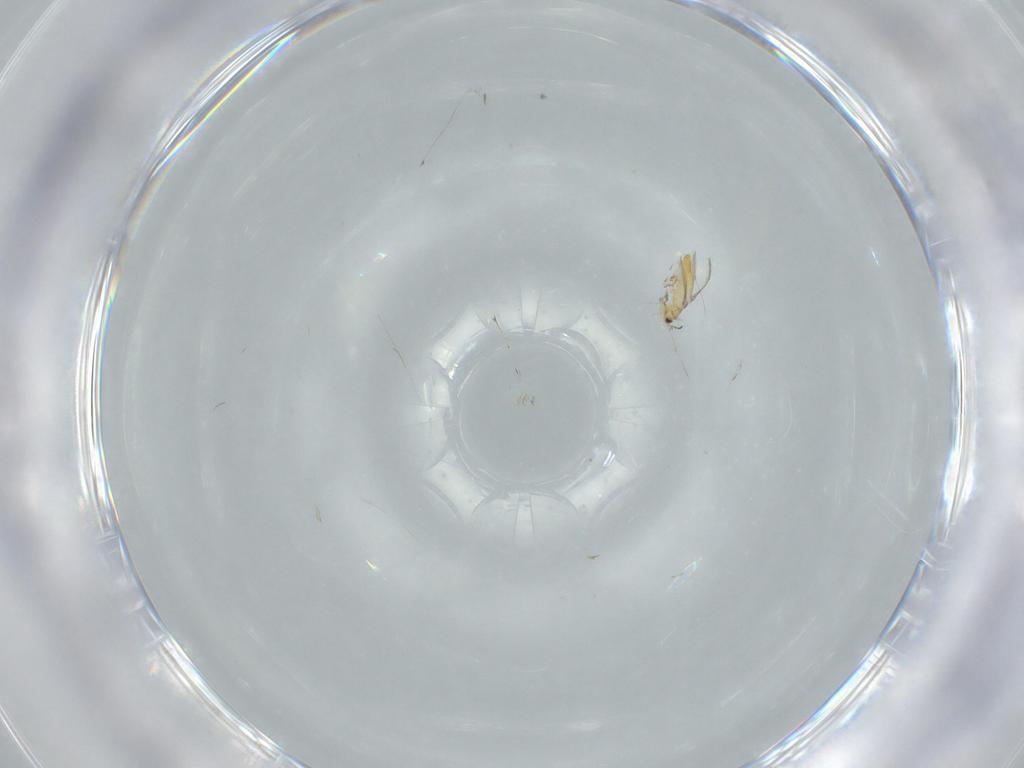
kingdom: Animalia
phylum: Arthropoda
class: Insecta
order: Thysanoptera
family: Thripidae
